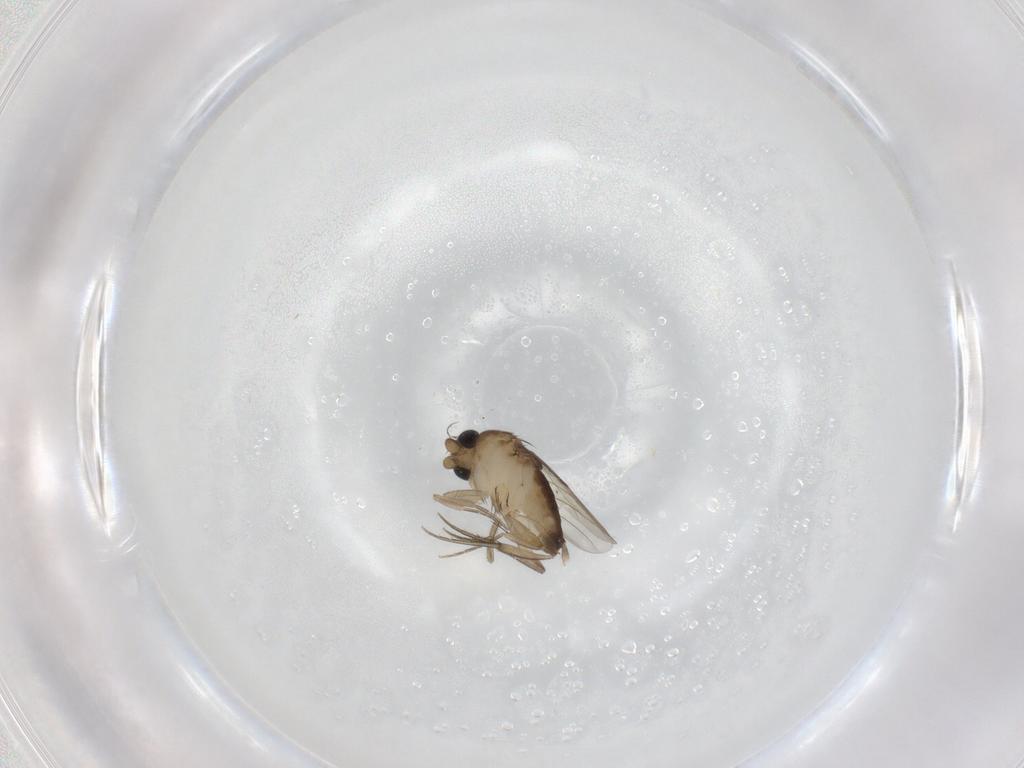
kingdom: Animalia
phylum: Arthropoda
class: Insecta
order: Diptera
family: Phoridae
